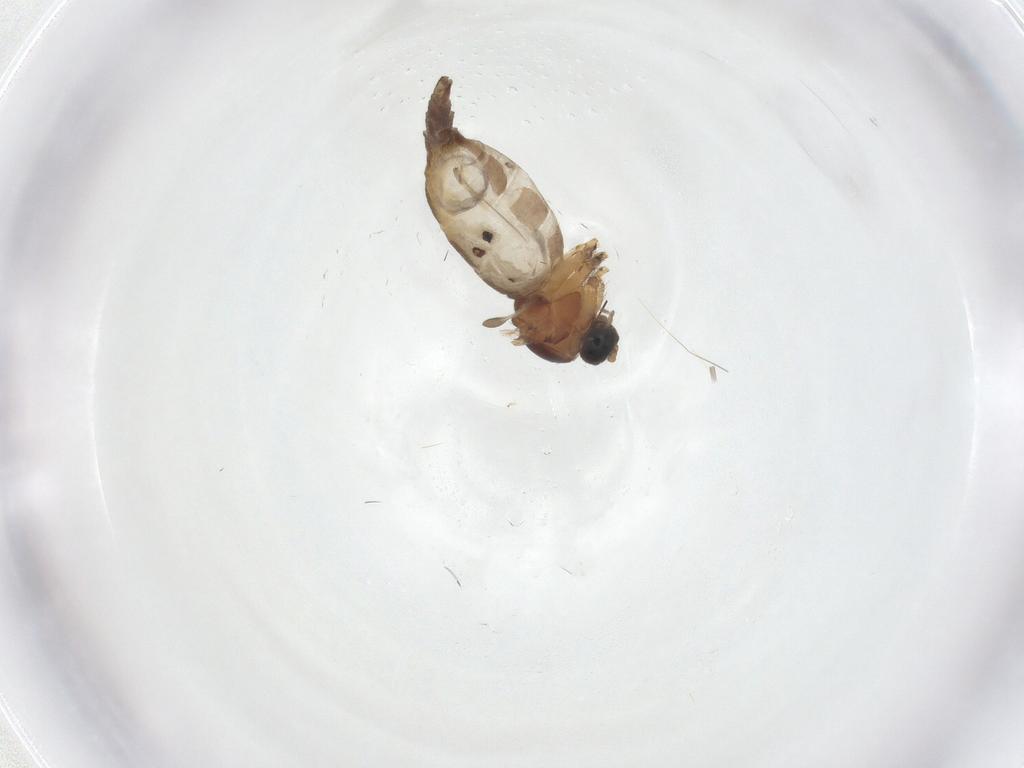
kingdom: Animalia
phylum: Arthropoda
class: Insecta
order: Diptera
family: Sciaridae
